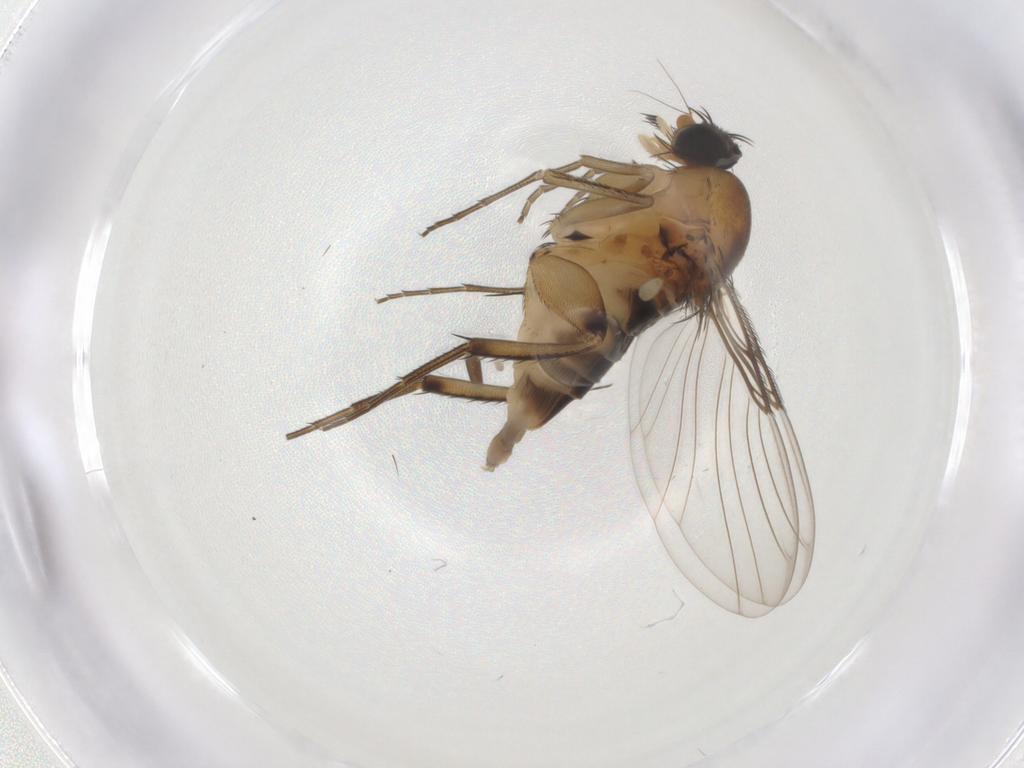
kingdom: Animalia
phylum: Arthropoda
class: Insecta
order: Diptera
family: Phoridae
